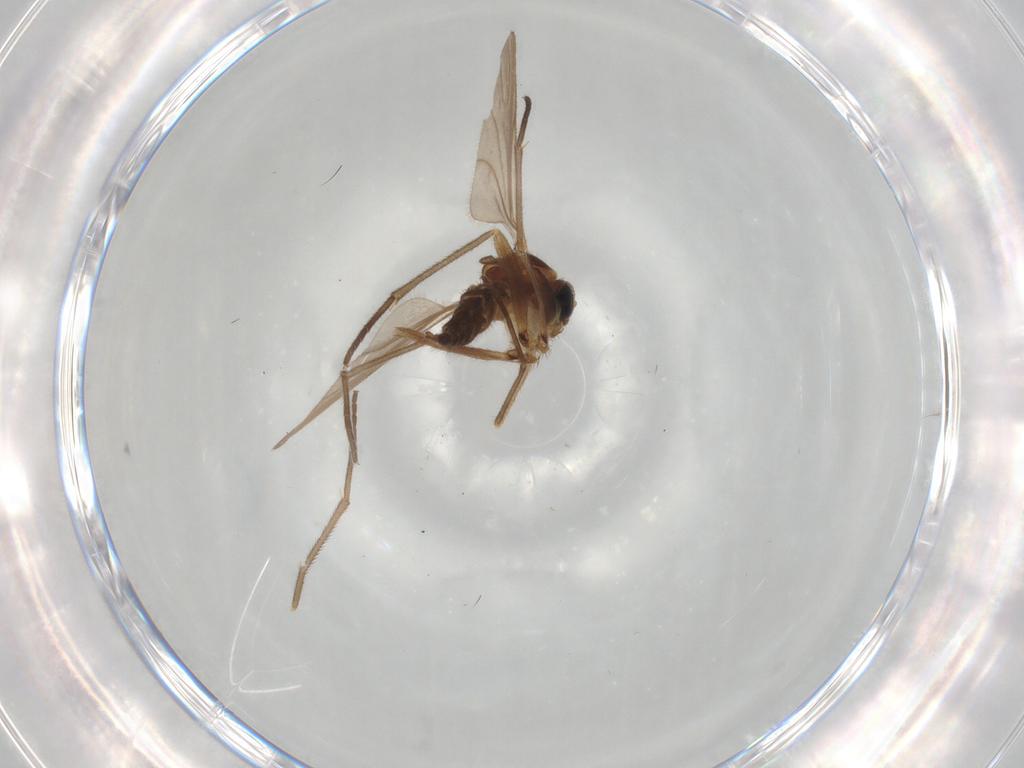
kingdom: Animalia
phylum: Arthropoda
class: Insecta
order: Diptera
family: Sciaridae
